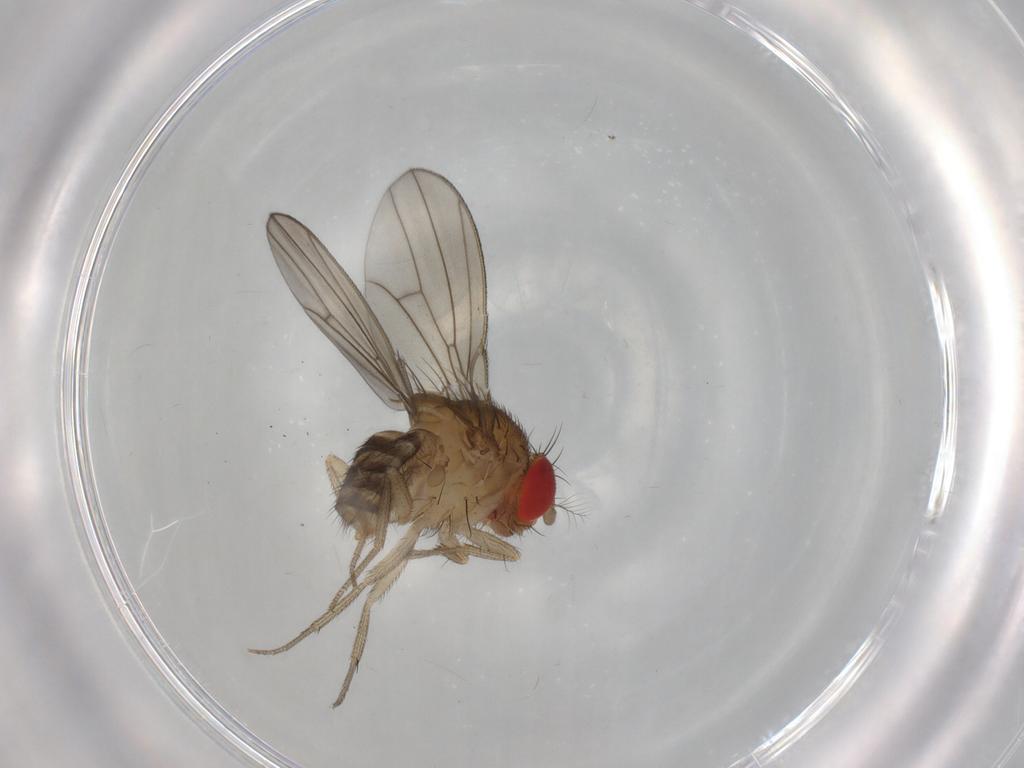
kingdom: Animalia
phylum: Arthropoda
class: Insecta
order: Diptera
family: Drosophilidae
